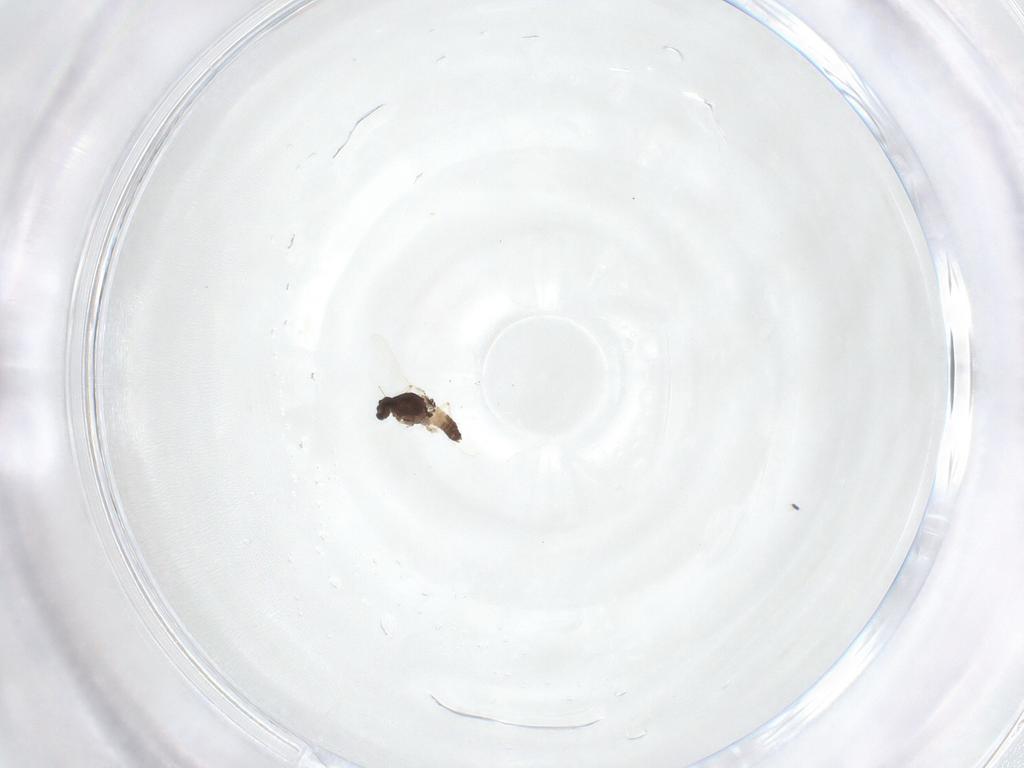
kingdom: Animalia
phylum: Arthropoda
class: Insecta
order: Diptera
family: Chironomidae
